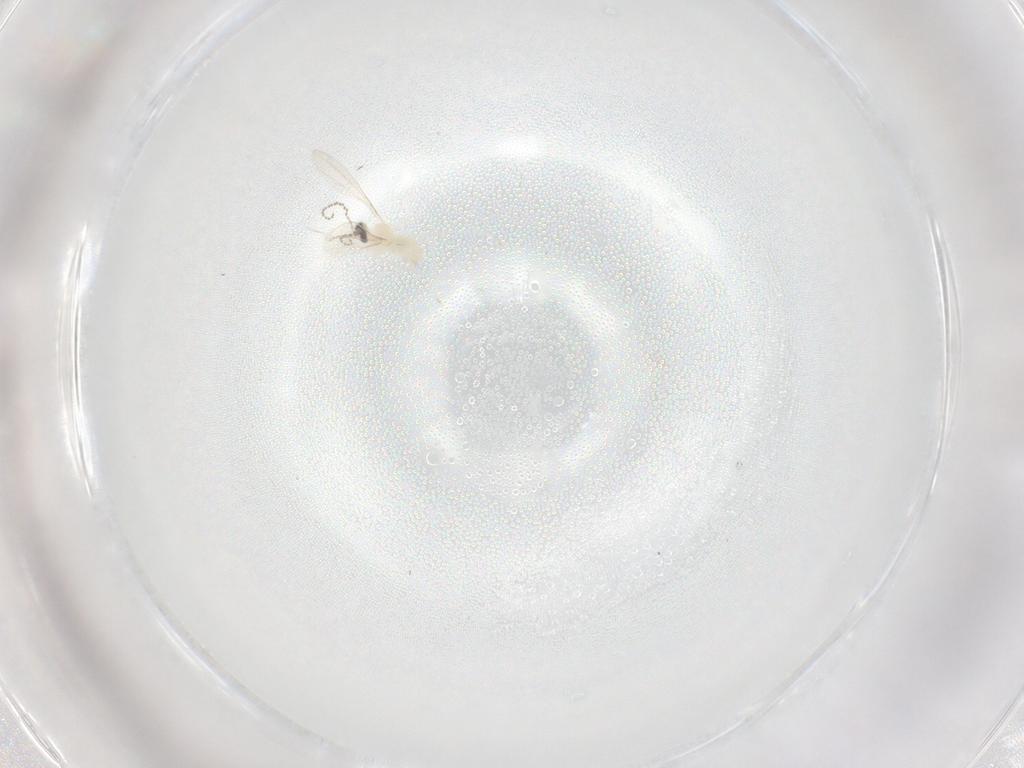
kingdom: Animalia
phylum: Arthropoda
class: Insecta
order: Diptera
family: Cecidomyiidae
